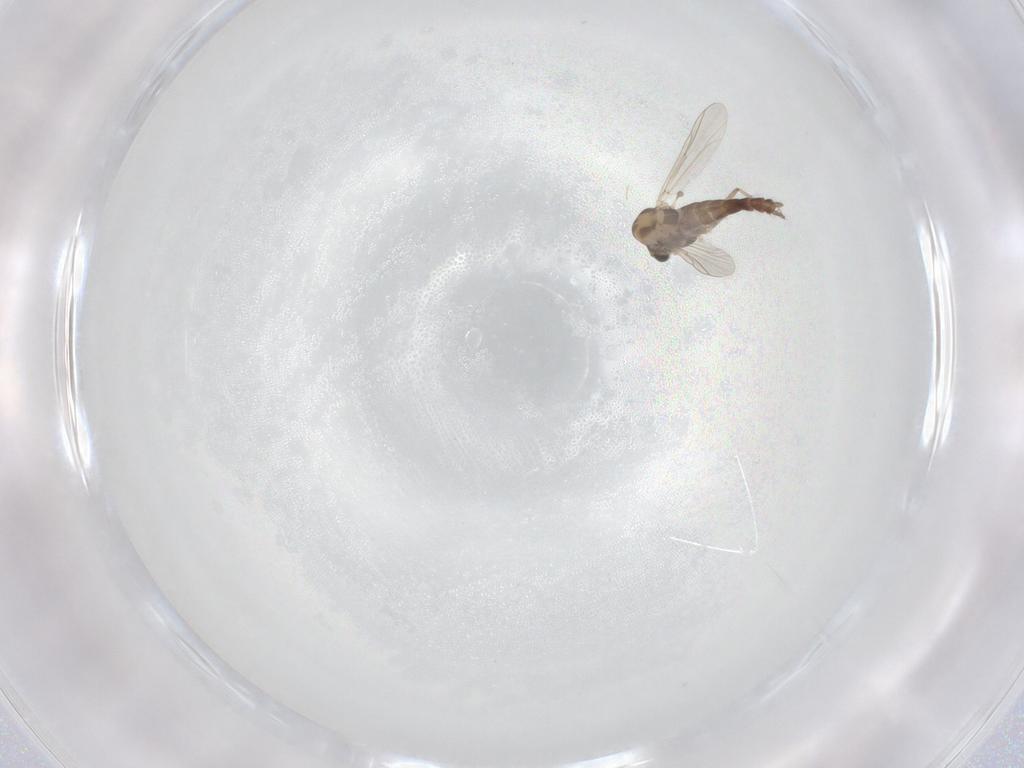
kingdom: Animalia
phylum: Arthropoda
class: Insecta
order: Diptera
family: Chironomidae
